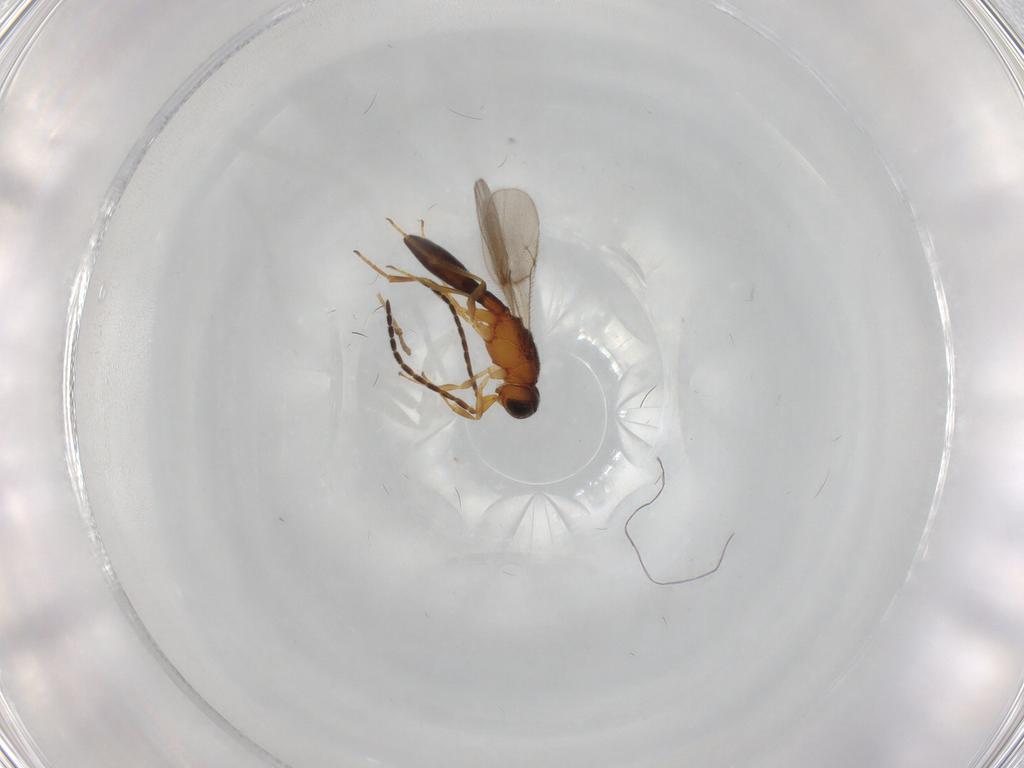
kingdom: Animalia
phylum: Arthropoda
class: Insecta
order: Hymenoptera
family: Scelionidae
